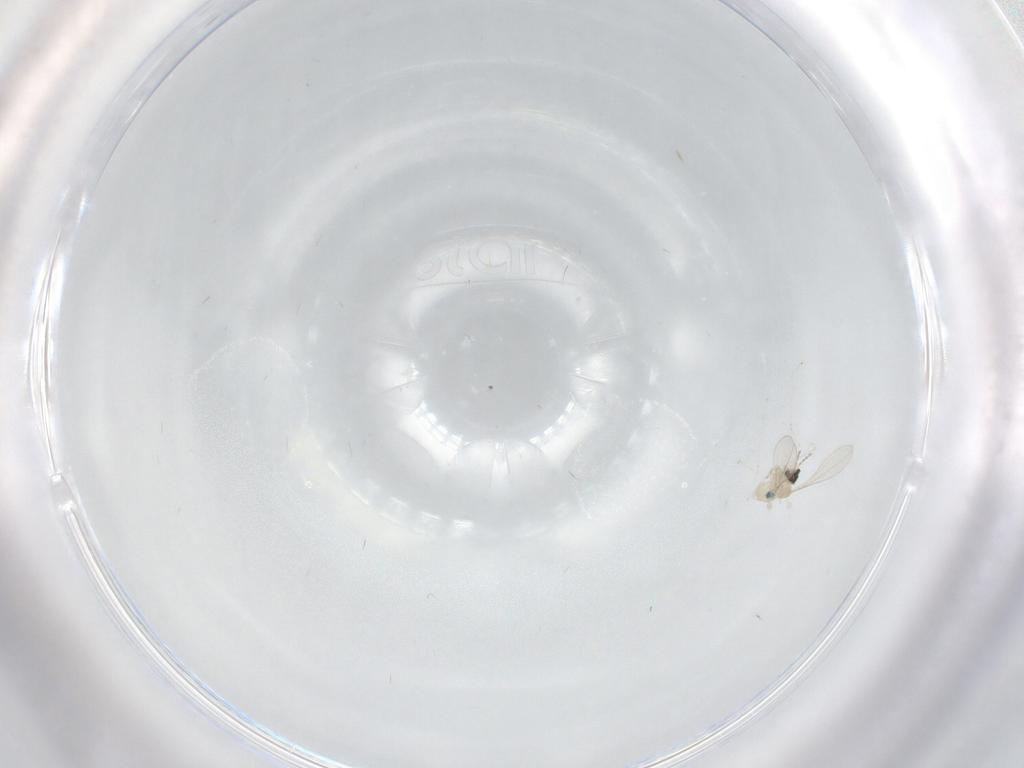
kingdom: Animalia
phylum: Arthropoda
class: Insecta
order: Diptera
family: Cecidomyiidae
